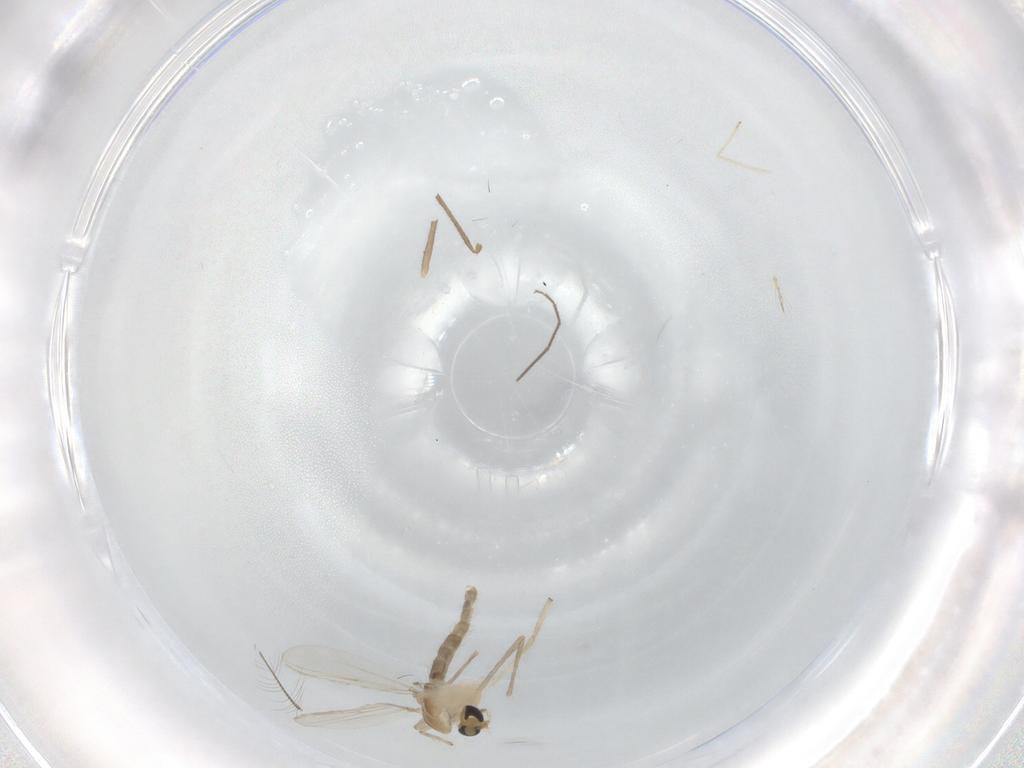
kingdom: Animalia
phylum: Arthropoda
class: Insecta
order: Diptera
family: Chironomidae
